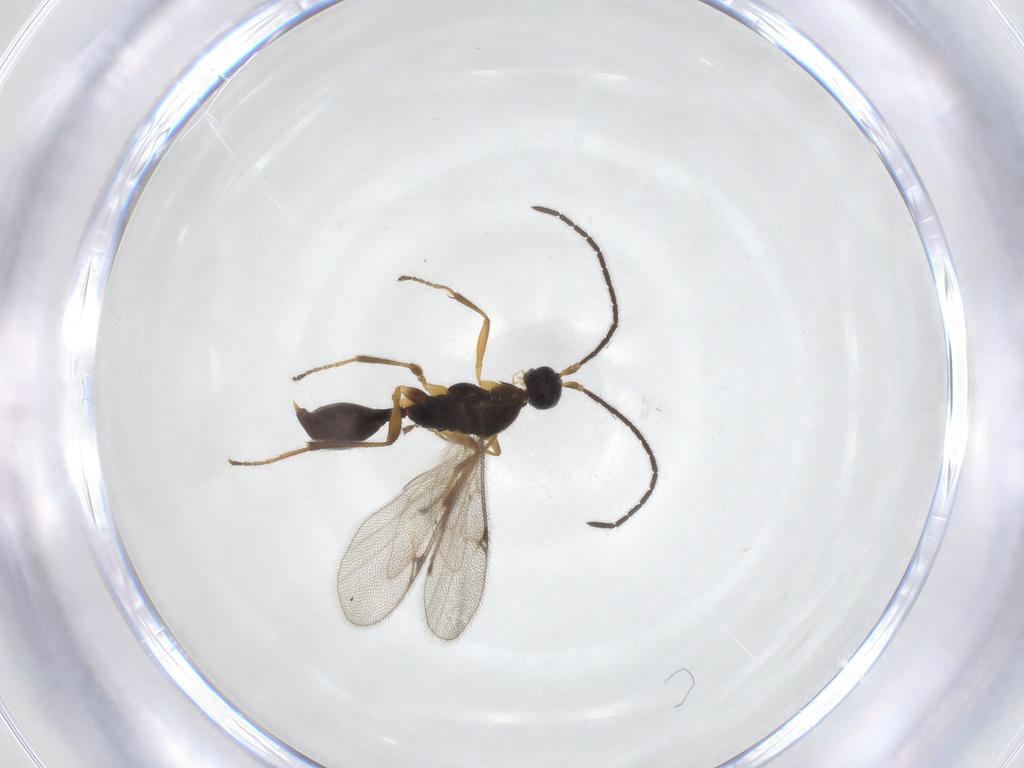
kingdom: Animalia
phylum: Arthropoda
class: Insecta
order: Hymenoptera
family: Proctotrupidae
